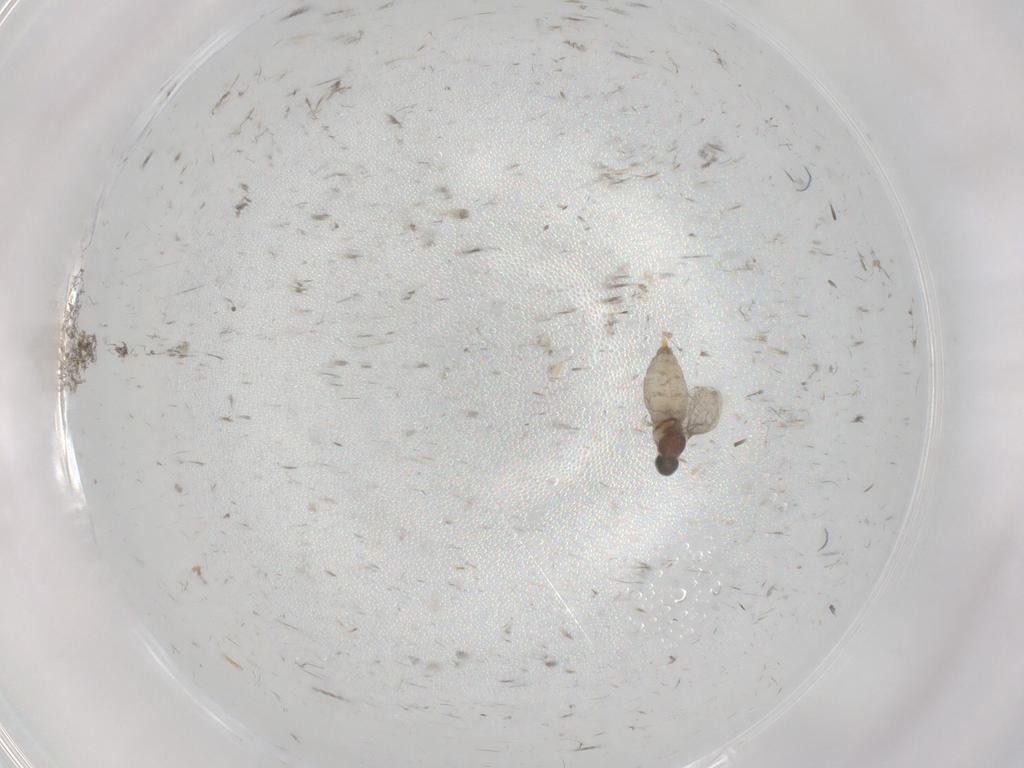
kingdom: Animalia
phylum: Arthropoda
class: Insecta
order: Diptera
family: Cecidomyiidae
